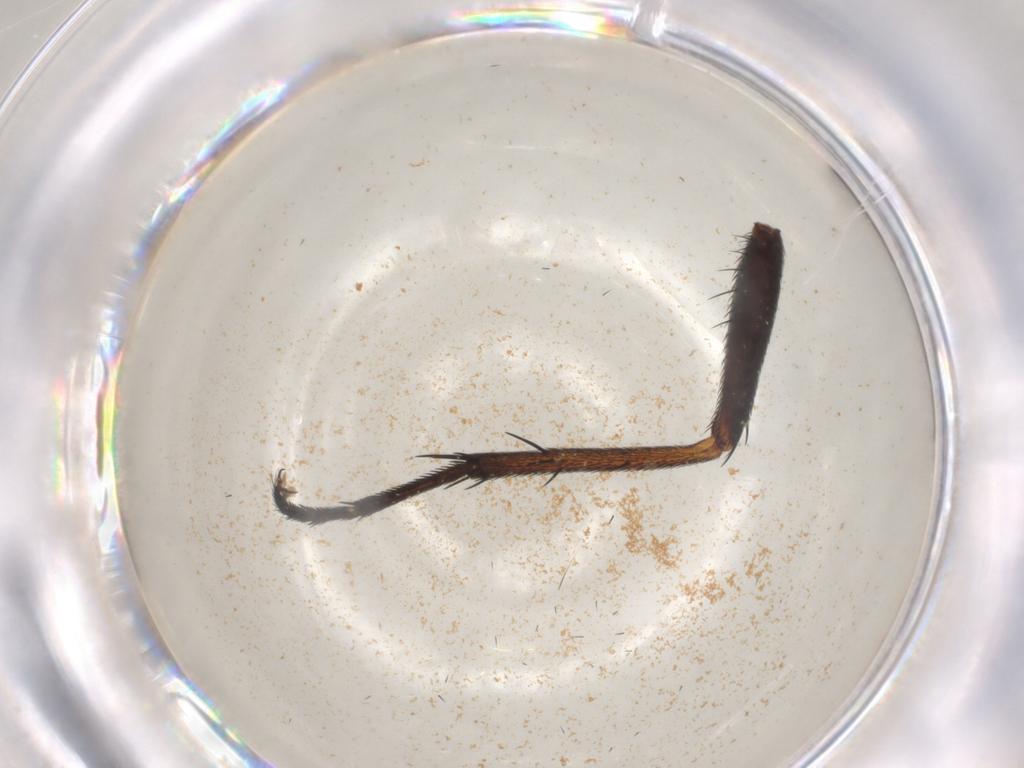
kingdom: Animalia
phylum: Arthropoda
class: Insecta
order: Diptera
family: Calliphoridae
